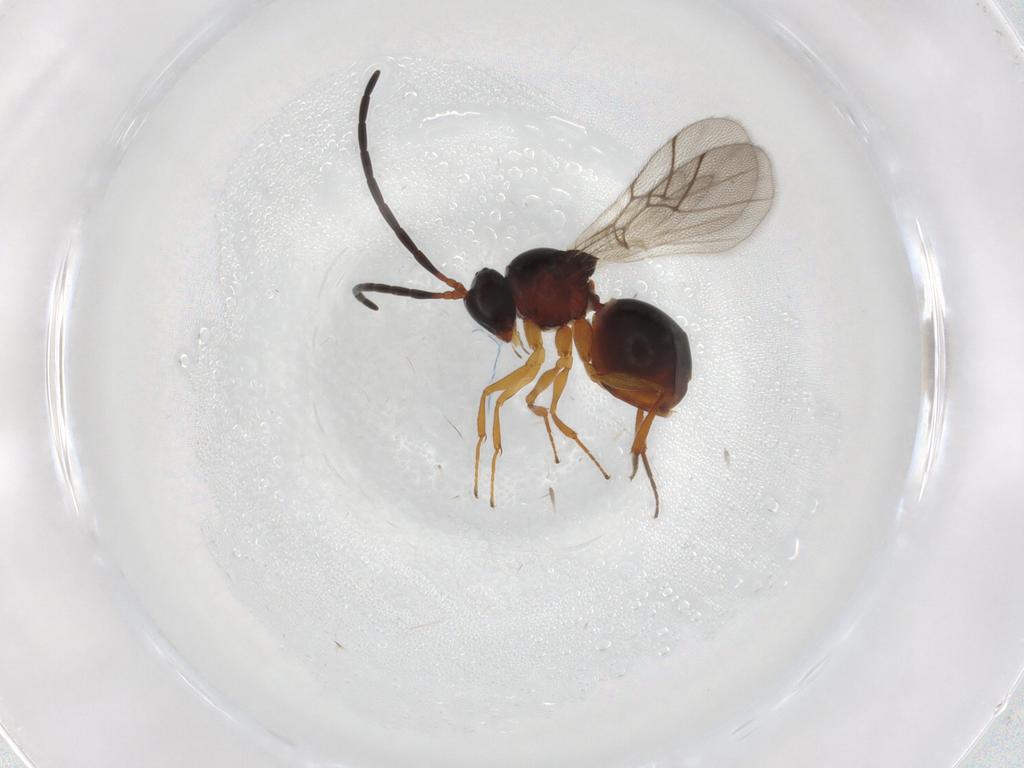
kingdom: Animalia
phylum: Arthropoda
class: Insecta
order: Hymenoptera
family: Figitidae
